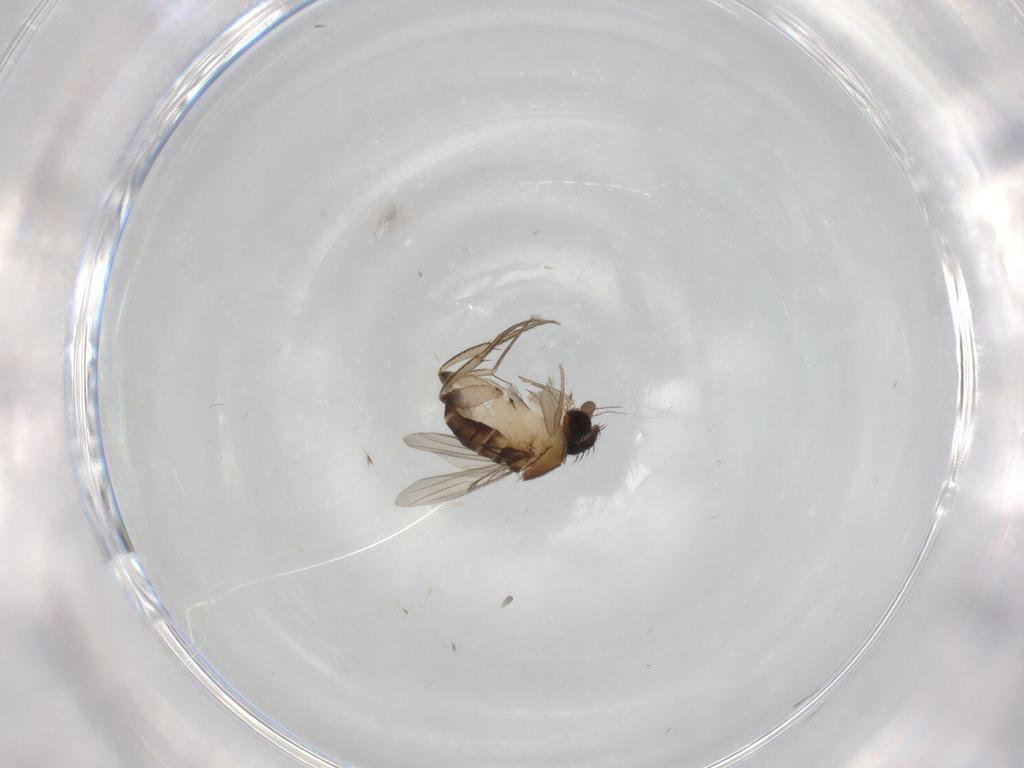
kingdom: Animalia
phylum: Arthropoda
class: Insecta
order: Diptera
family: Phoridae
